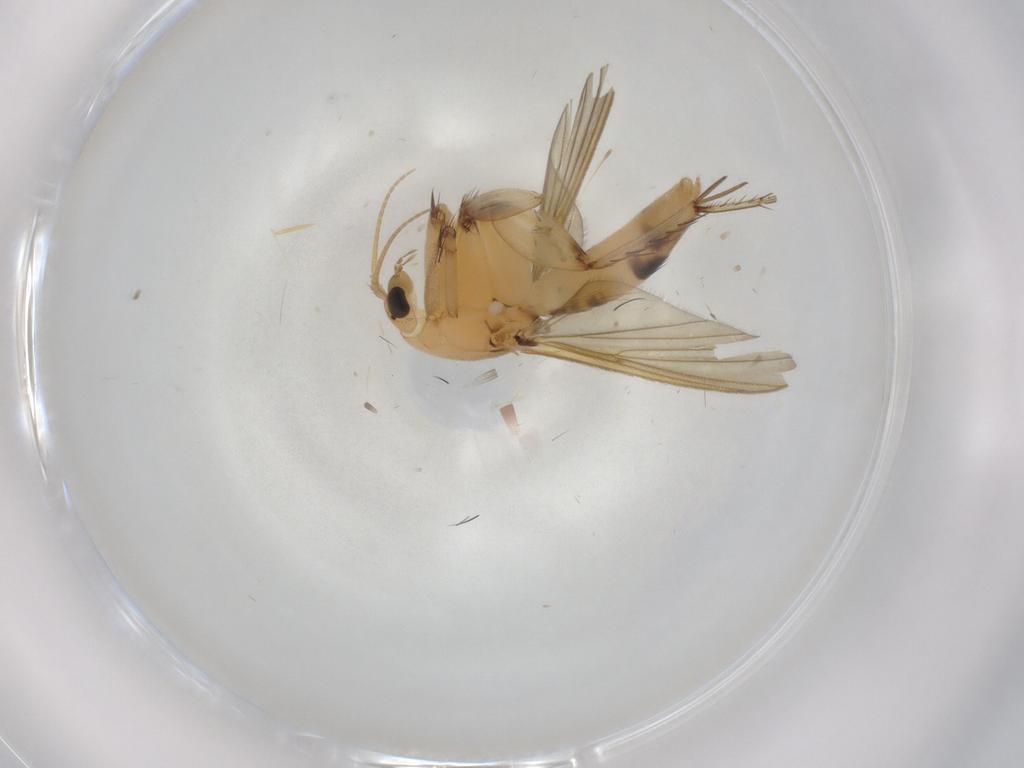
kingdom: Animalia
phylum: Arthropoda
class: Insecta
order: Diptera
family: Mycetophilidae
